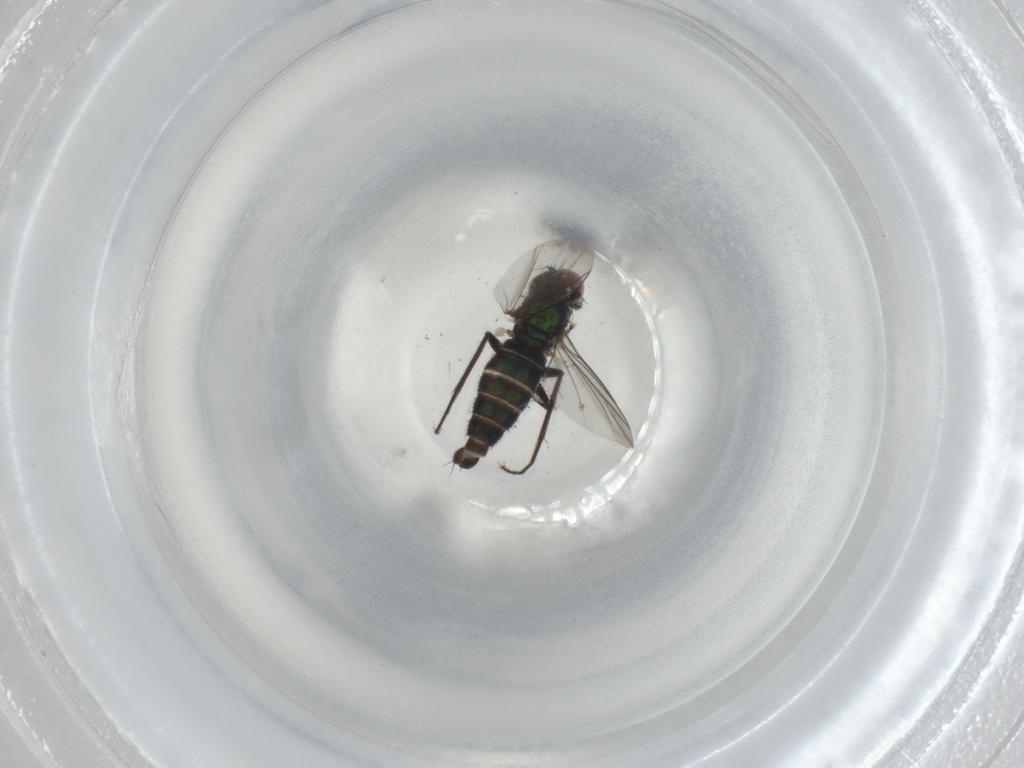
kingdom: Animalia
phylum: Arthropoda
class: Insecta
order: Diptera
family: Dolichopodidae
